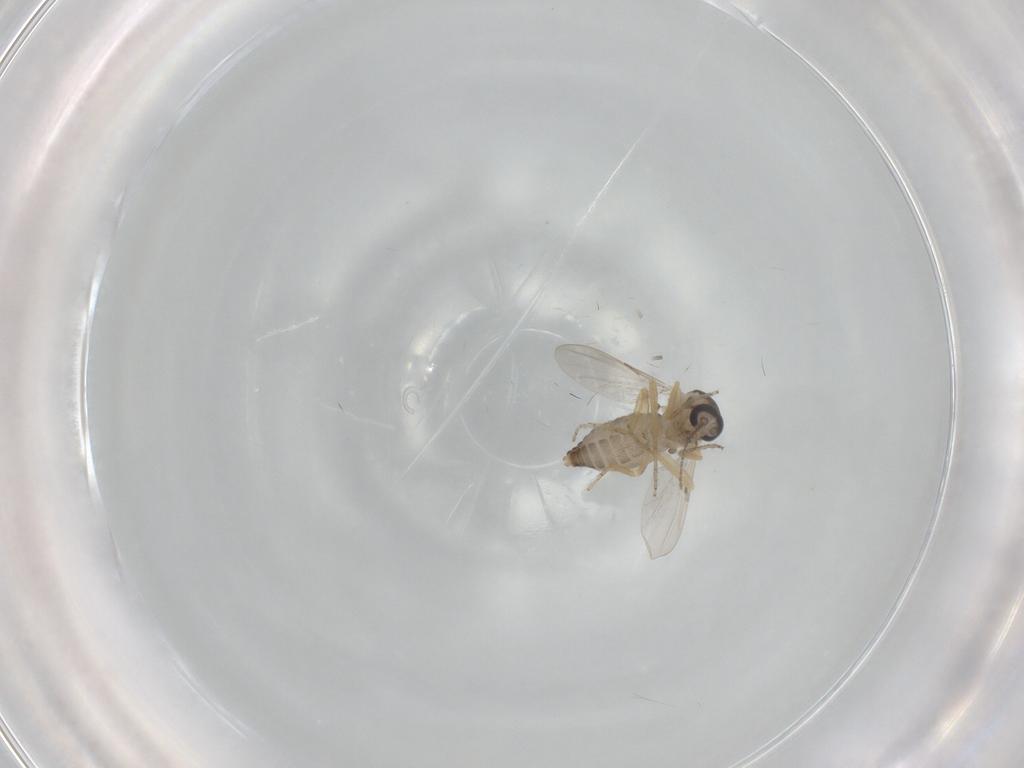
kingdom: Animalia
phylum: Arthropoda
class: Insecta
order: Diptera
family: Ceratopogonidae
